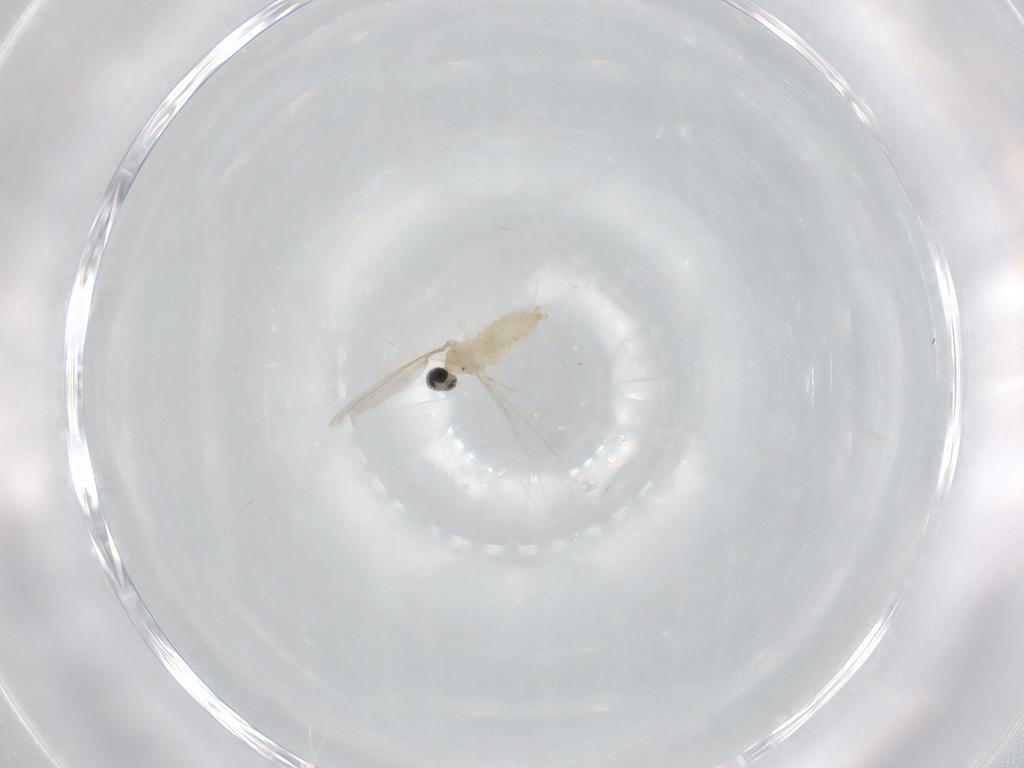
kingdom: Animalia
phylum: Arthropoda
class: Insecta
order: Diptera
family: Cecidomyiidae
